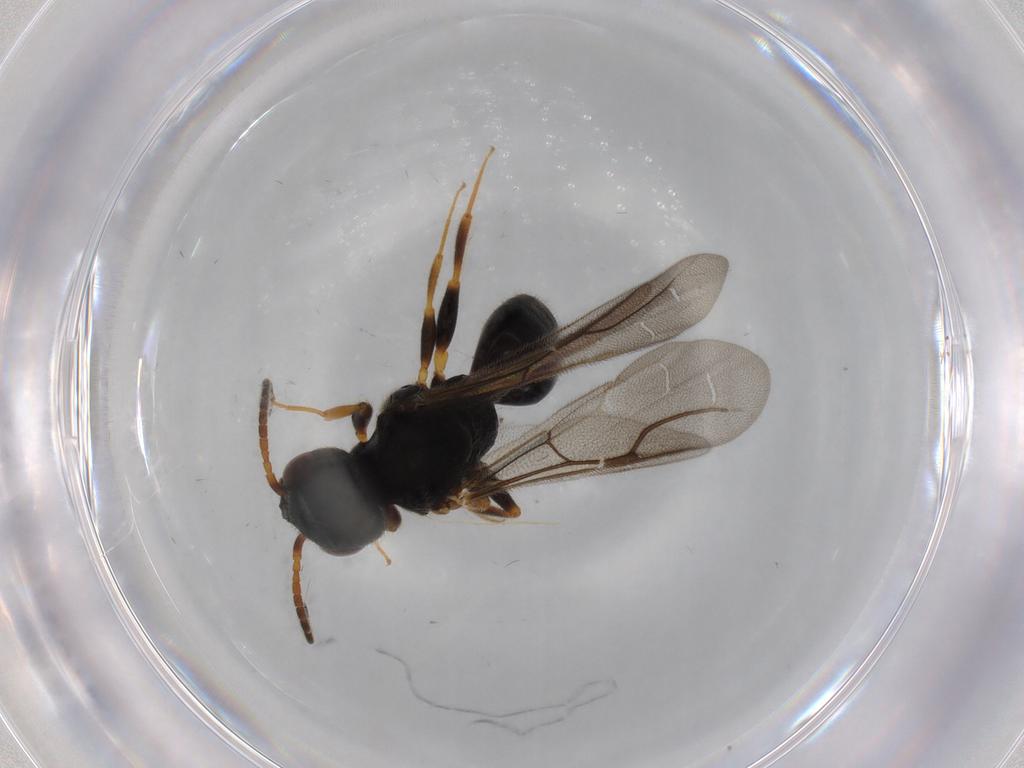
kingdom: Animalia
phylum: Arthropoda
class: Insecta
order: Hymenoptera
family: Bethylidae
